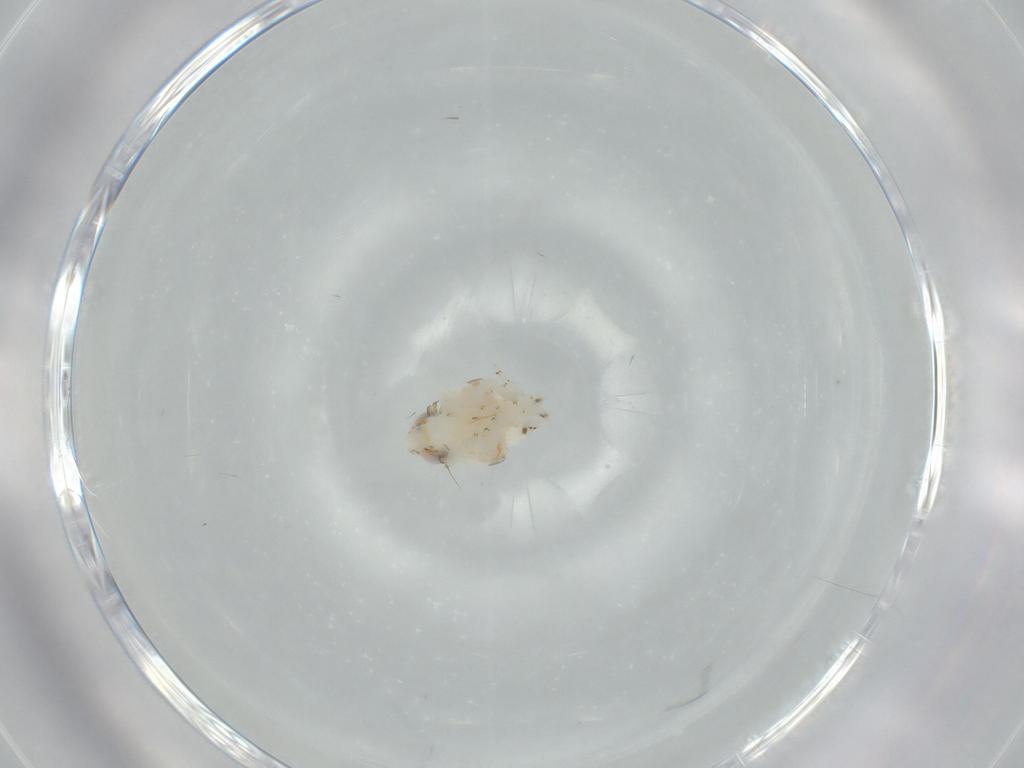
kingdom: Animalia
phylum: Arthropoda
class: Insecta
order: Hemiptera
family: Nogodinidae
